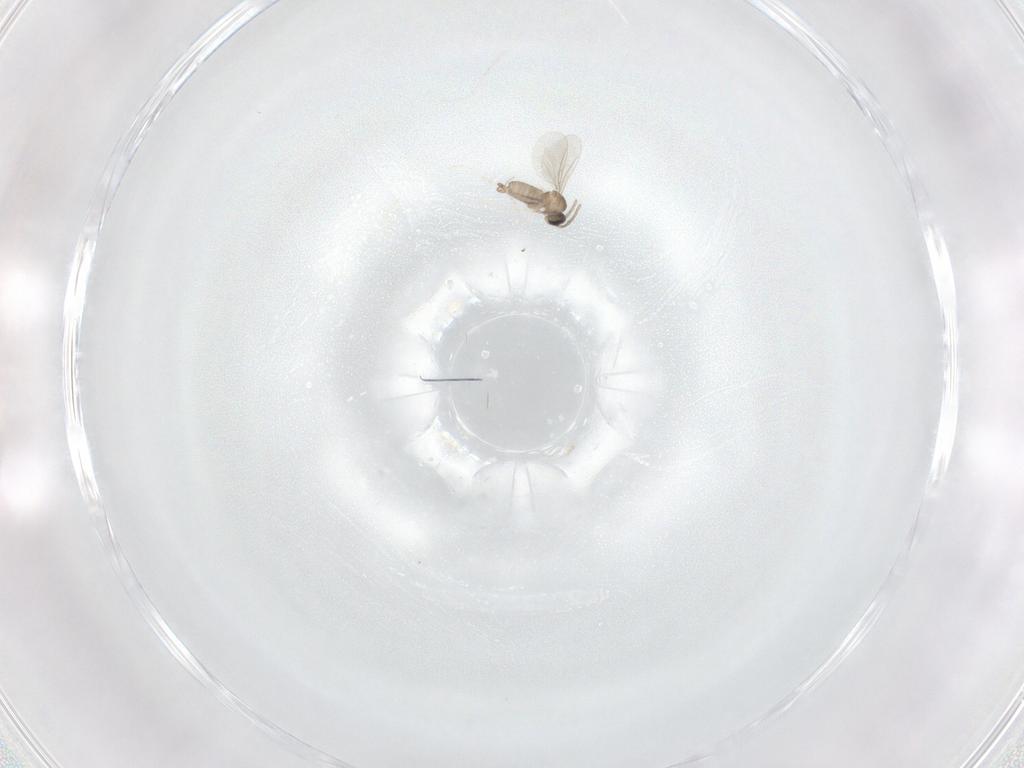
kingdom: Animalia
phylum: Arthropoda
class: Insecta
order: Diptera
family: Cecidomyiidae
